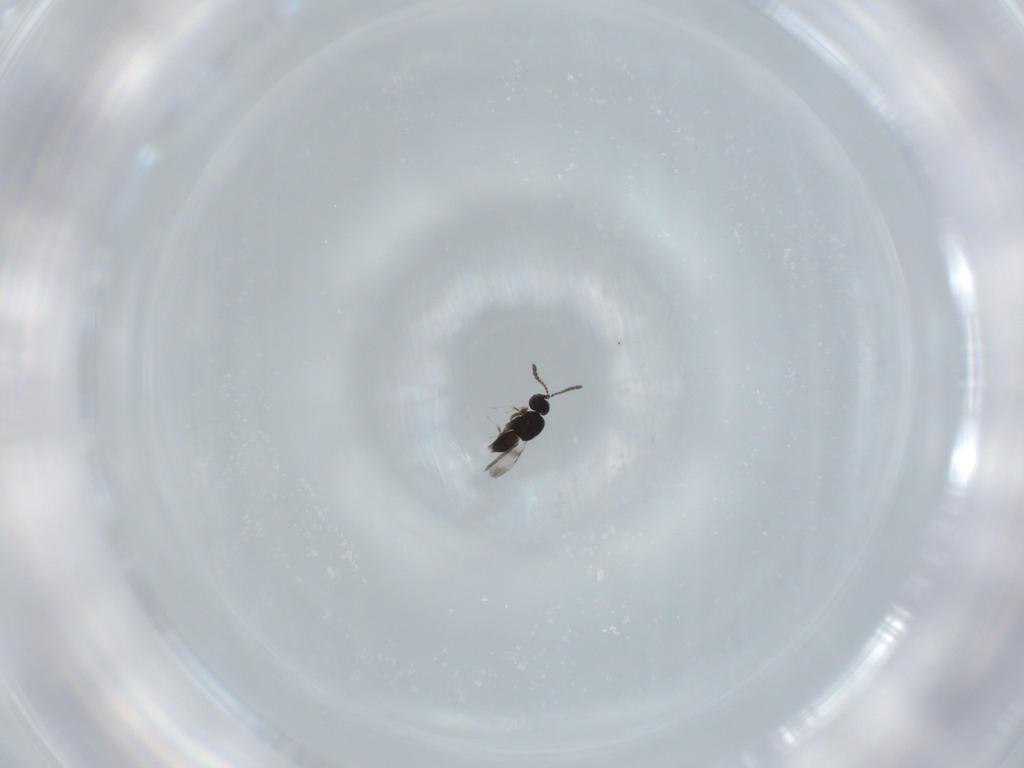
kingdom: Animalia
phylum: Arthropoda
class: Insecta
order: Hymenoptera
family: Ceraphronidae
